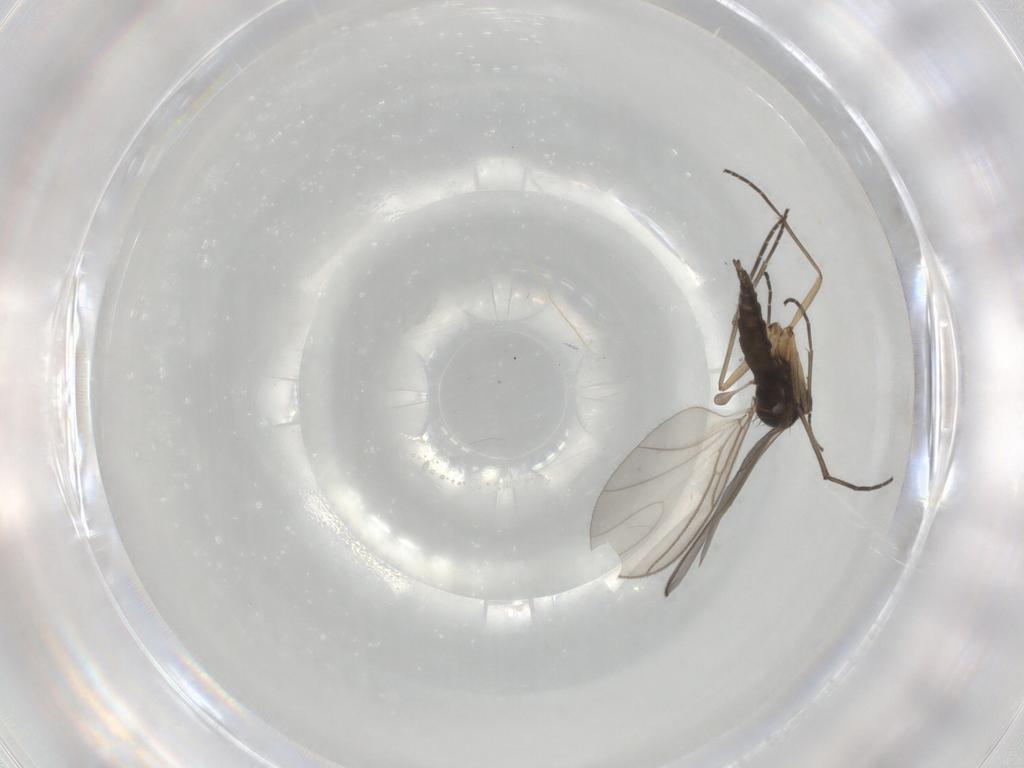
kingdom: Animalia
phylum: Arthropoda
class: Insecta
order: Diptera
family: Sciaridae
